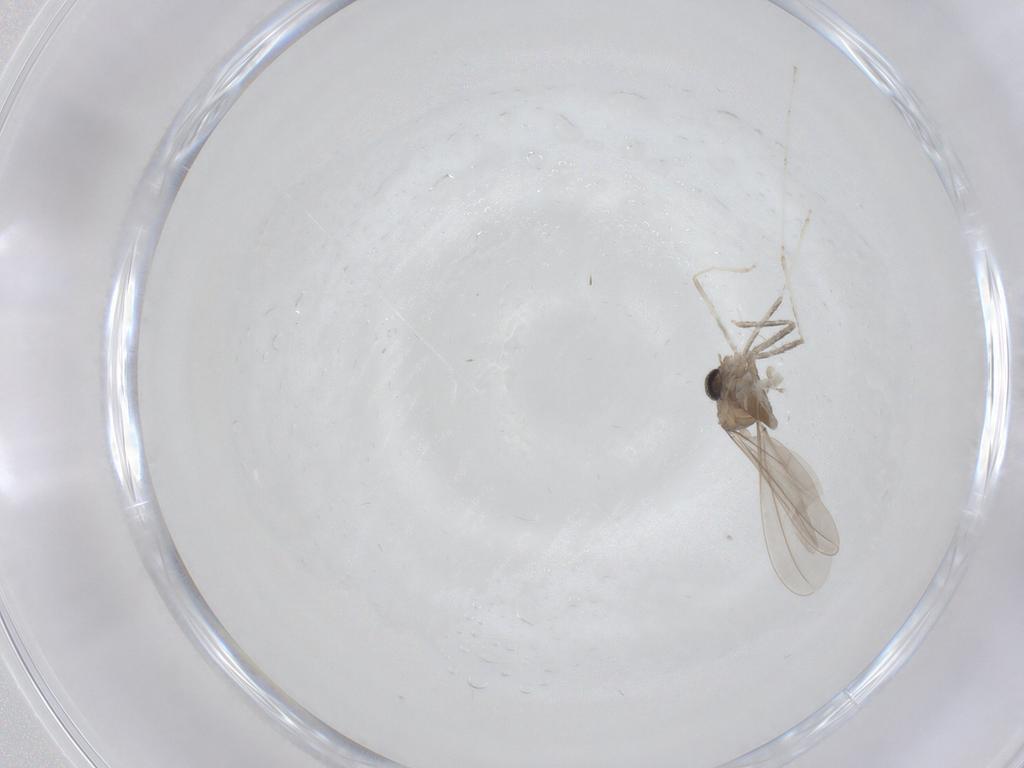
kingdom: Animalia
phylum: Arthropoda
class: Insecta
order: Diptera
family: Cecidomyiidae
